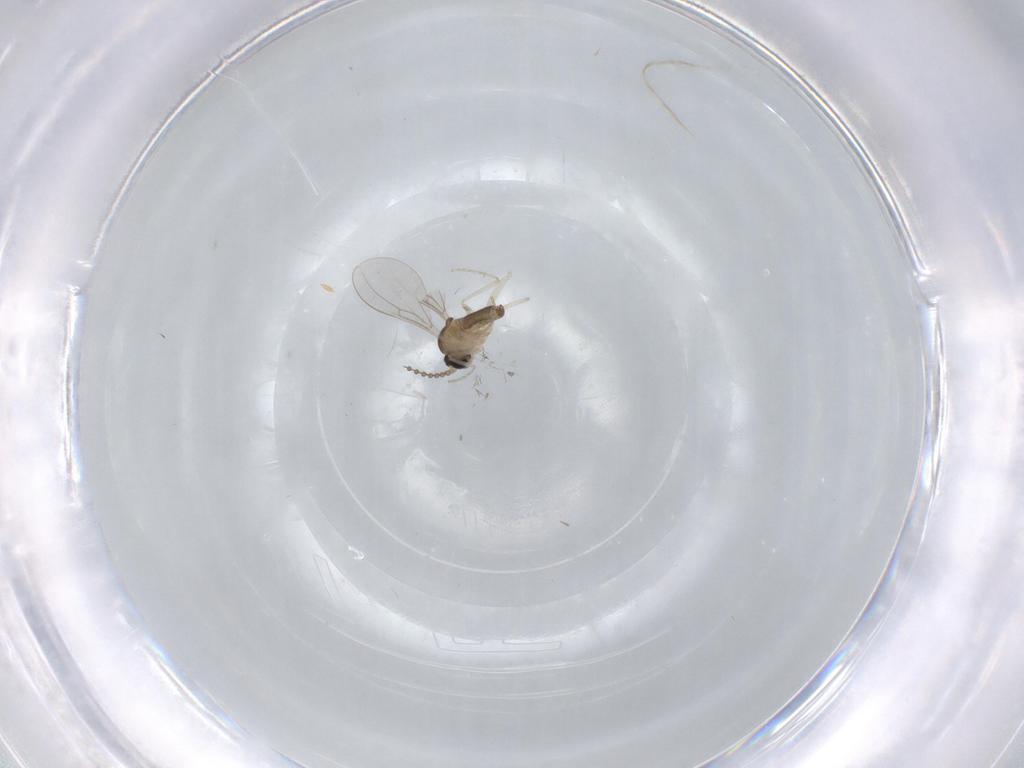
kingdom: Animalia
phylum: Arthropoda
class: Insecta
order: Diptera
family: Cecidomyiidae
